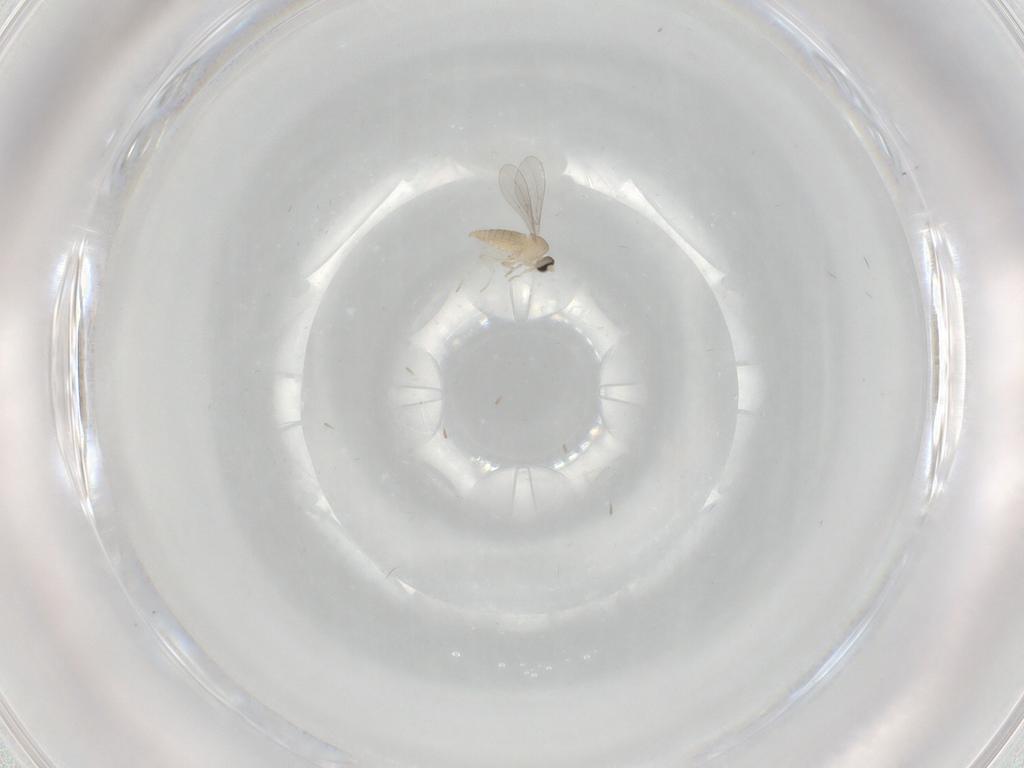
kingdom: Animalia
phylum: Arthropoda
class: Insecta
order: Diptera
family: Cecidomyiidae
